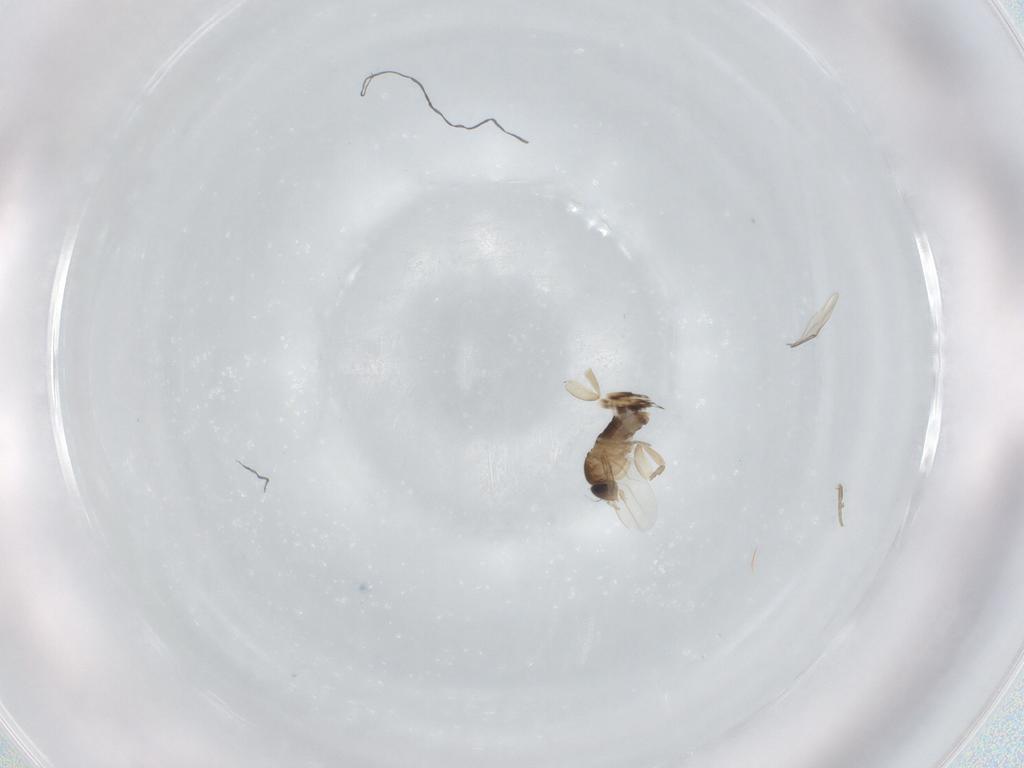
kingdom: Animalia
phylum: Arthropoda
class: Insecta
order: Diptera
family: Phoridae
